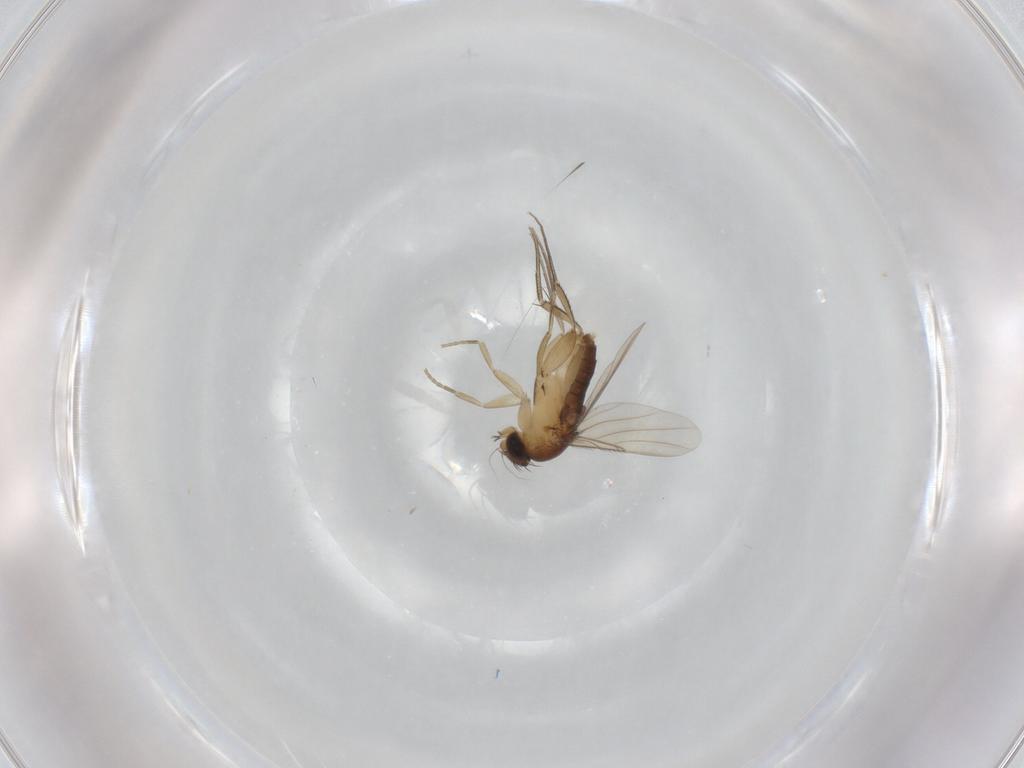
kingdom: Animalia
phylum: Arthropoda
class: Insecta
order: Diptera
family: Phoridae
